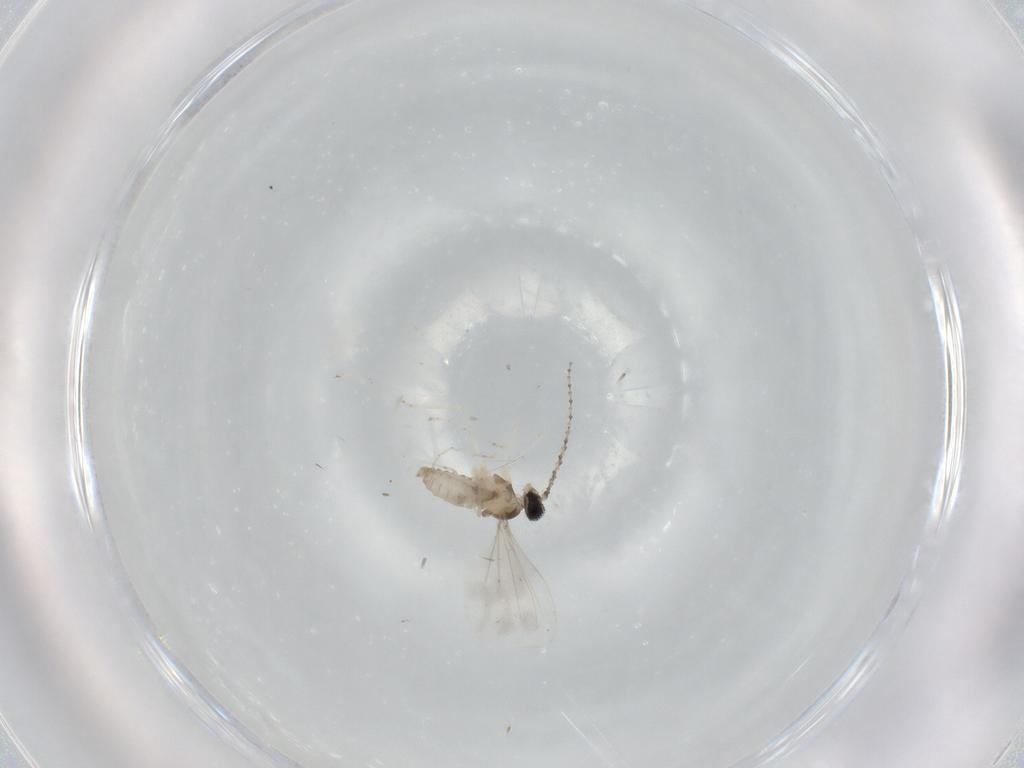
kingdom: Animalia
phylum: Arthropoda
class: Insecta
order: Diptera
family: Cecidomyiidae
